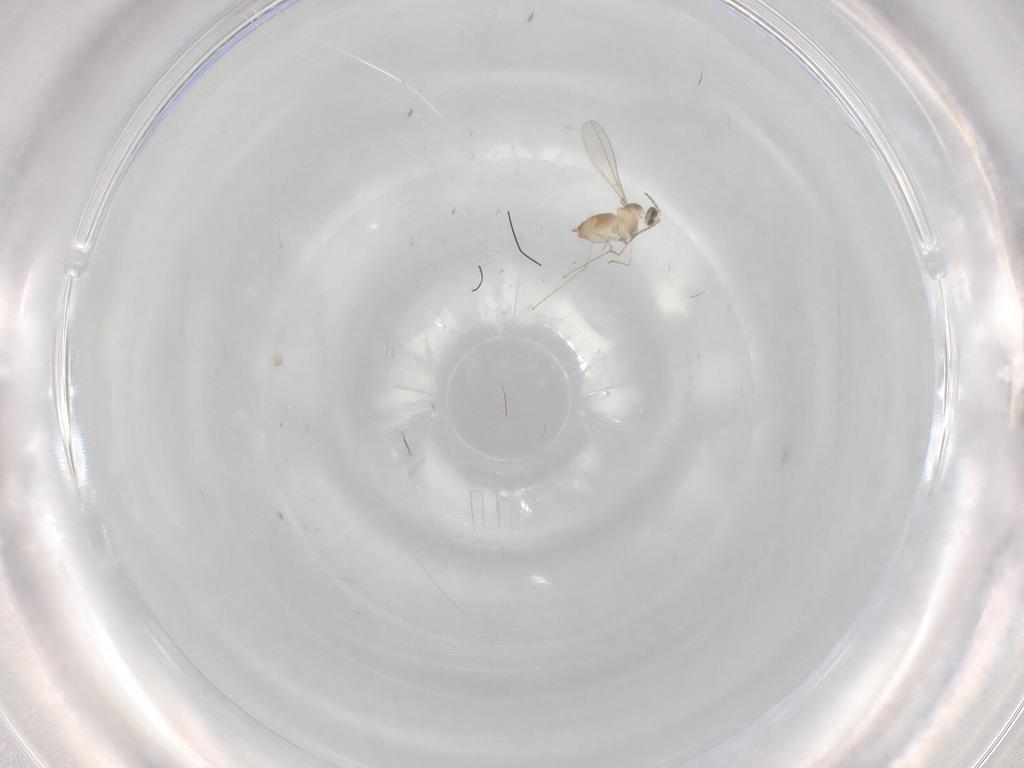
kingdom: Animalia
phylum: Arthropoda
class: Insecta
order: Diptera
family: Cecidomyiidae
